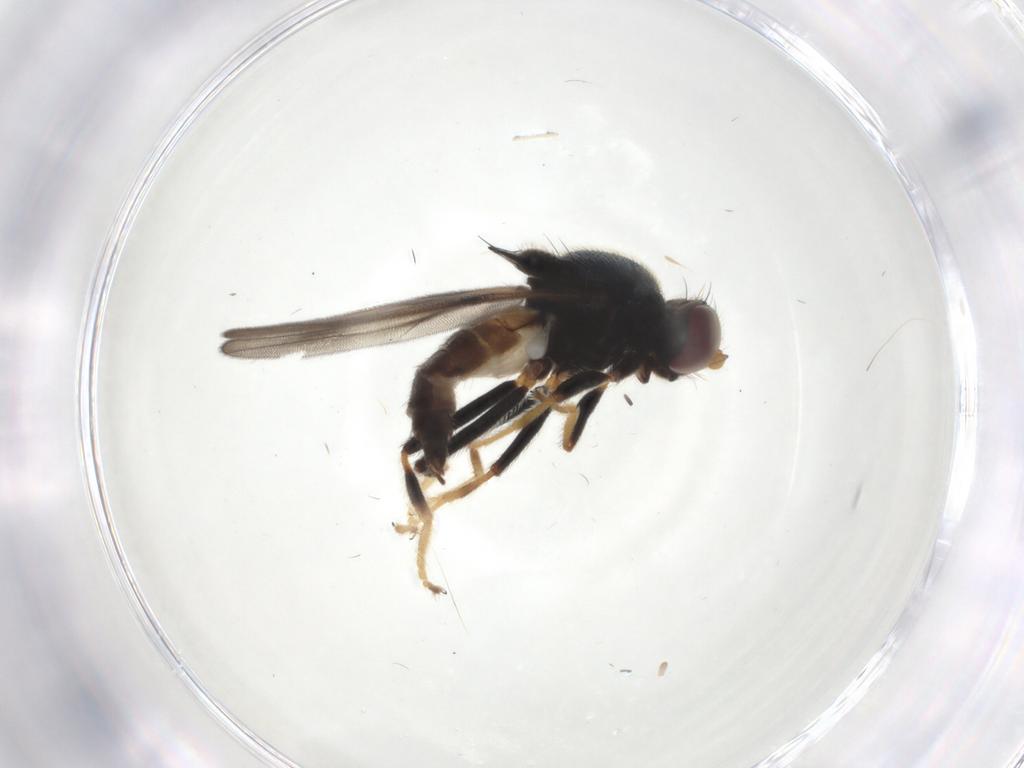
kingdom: Animalia
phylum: Arthropoda
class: Insecta
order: Diptera
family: Chloropidae
